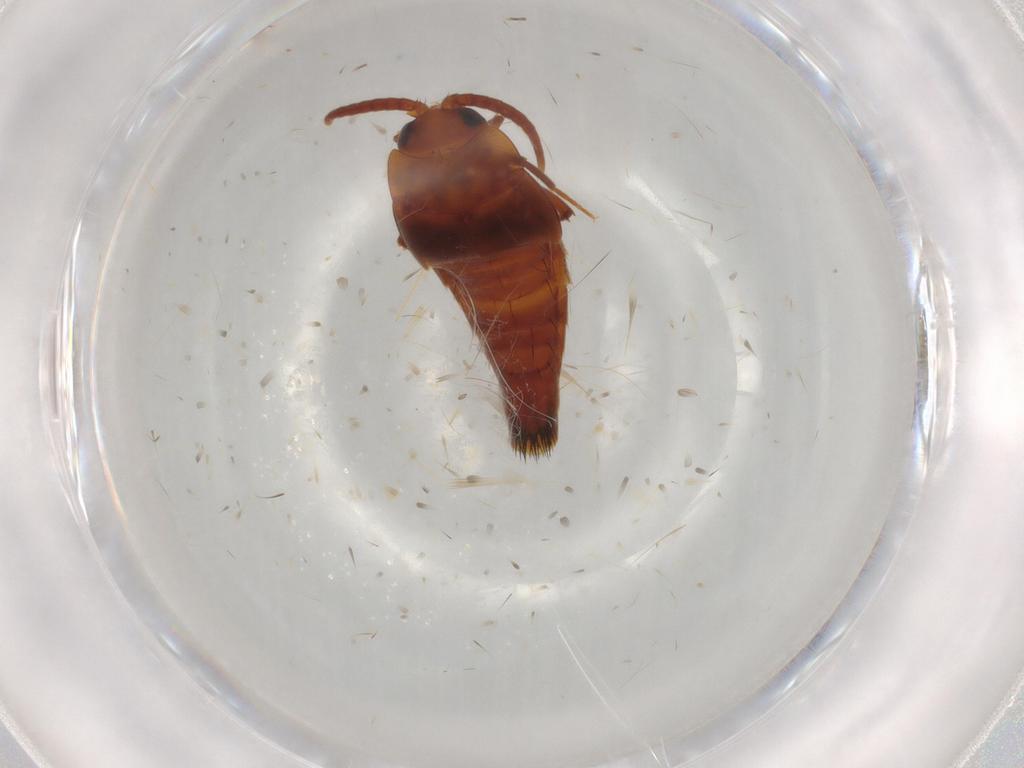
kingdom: Animalia
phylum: Arthropoda
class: Insecta
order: Coleoptera
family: Staphylinidae
